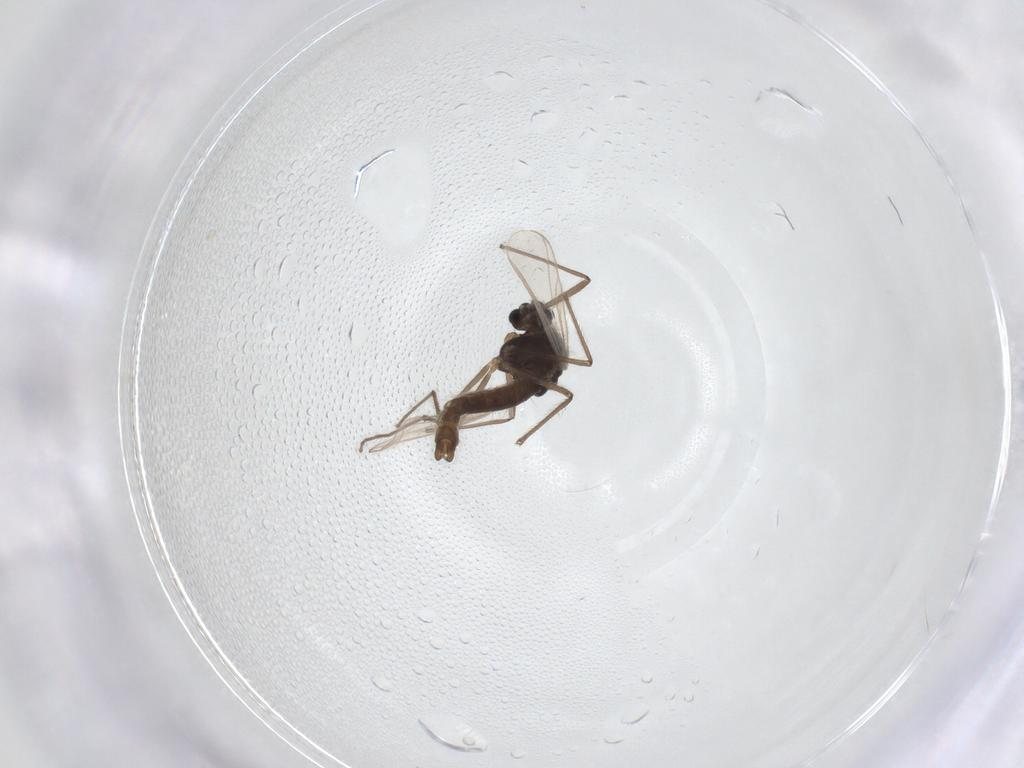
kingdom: Animalia
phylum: Arthropoda
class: Insecta
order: Diptera
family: Chironomidae
